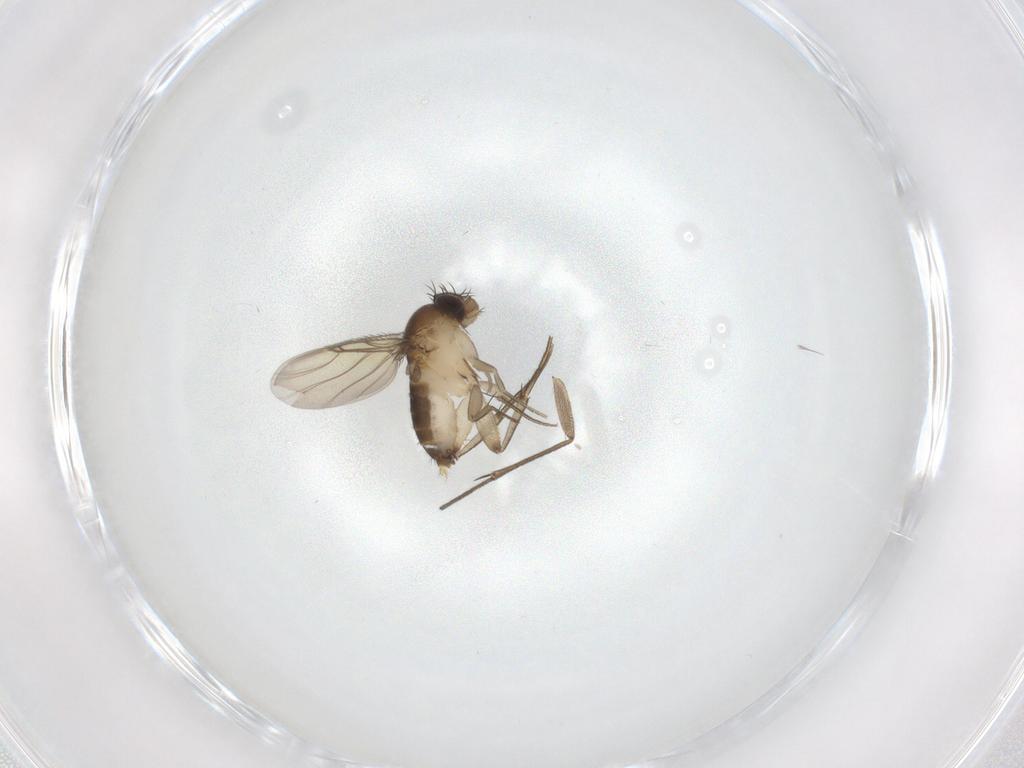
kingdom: Animalia
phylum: Arthropoda
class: Insecta
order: Diptera
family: Phoridae
